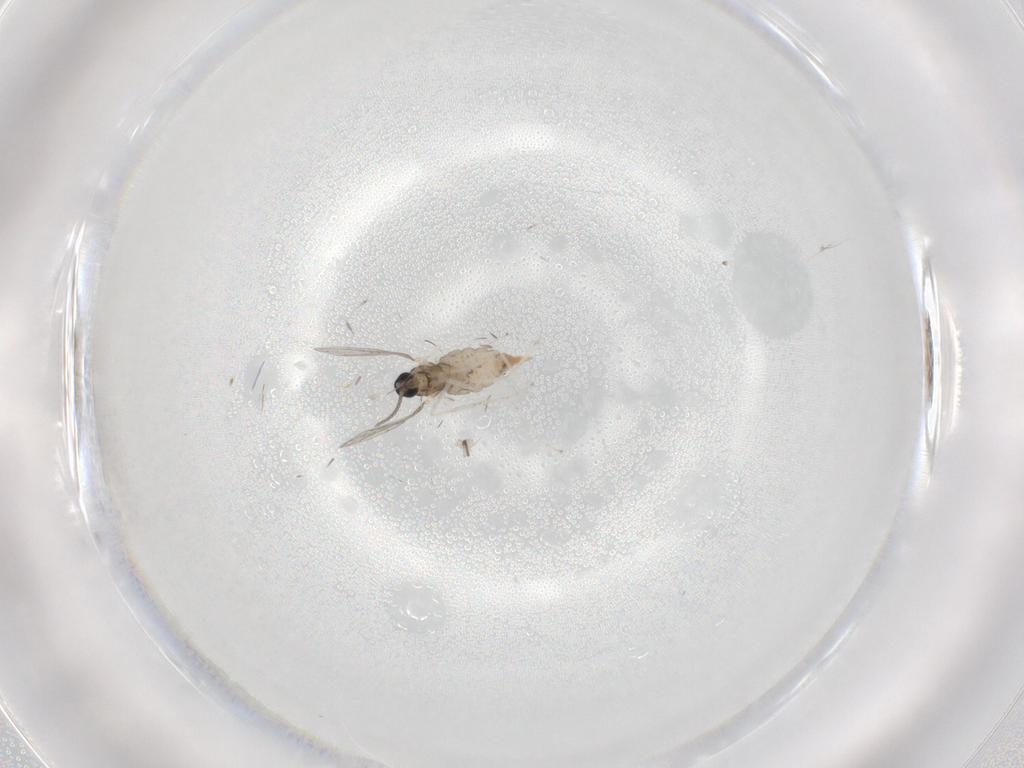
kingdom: Animalia
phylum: Arthropoda
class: Insecta
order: Diptera
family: Cecidomyiidae
